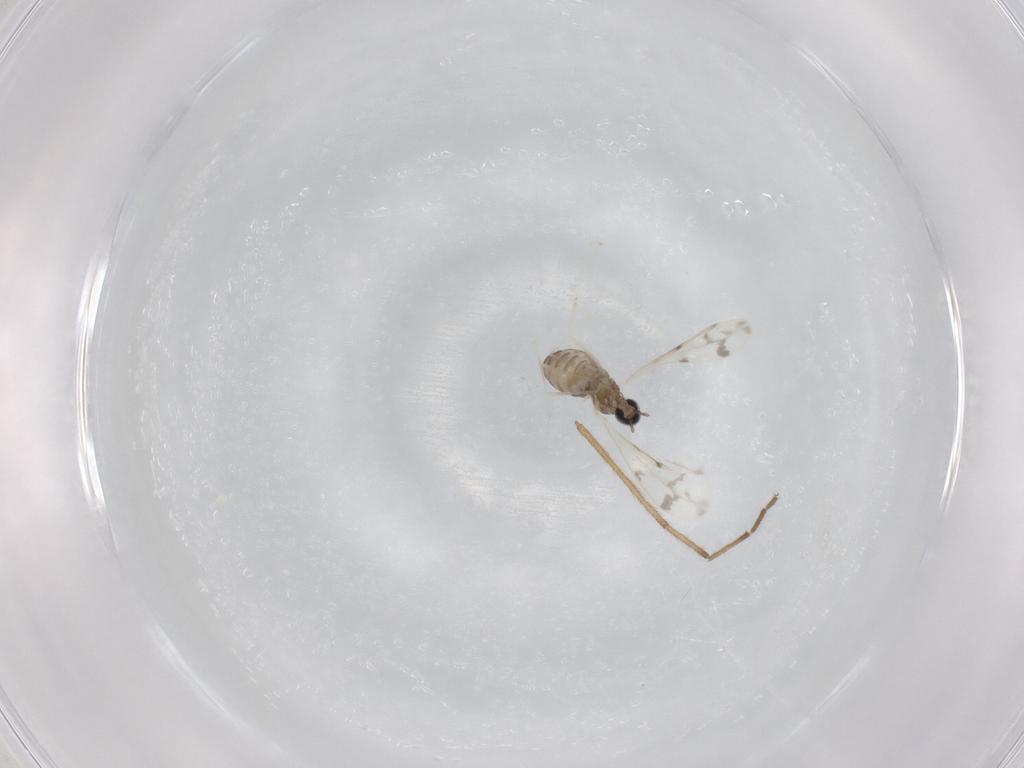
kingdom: Animalia
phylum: Arthropoda
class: Insecta
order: Diptera
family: Cecidomyiidae
